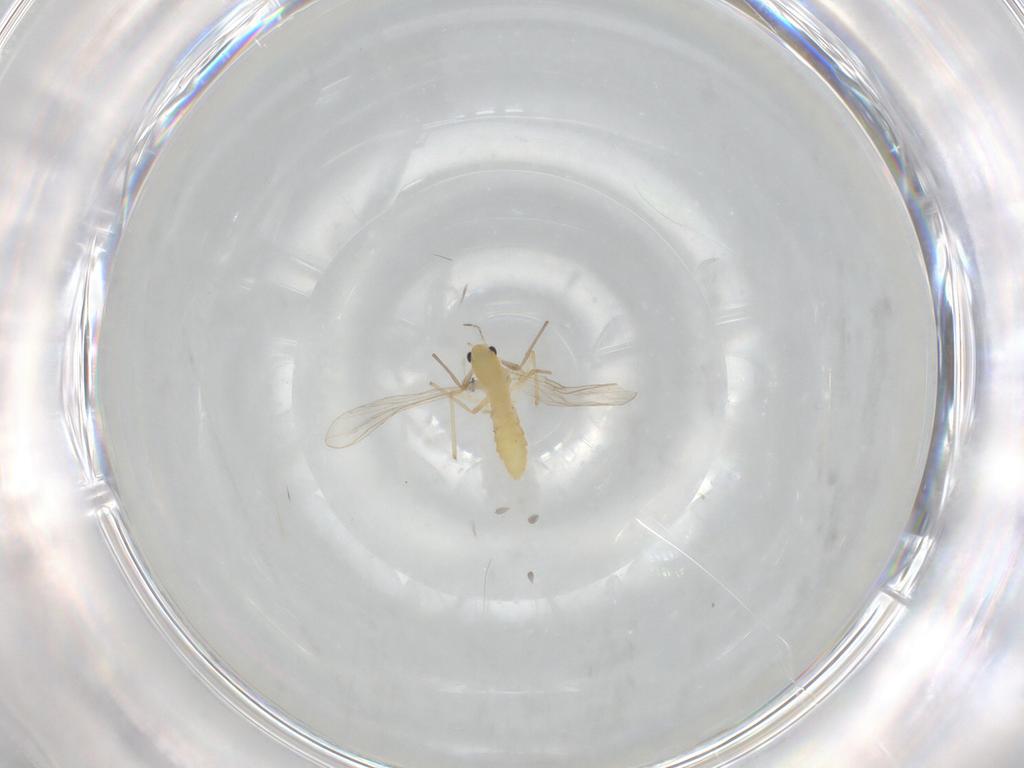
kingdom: Animalia
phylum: Arthropoda
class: Insecta
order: Diptera
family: Chironomidae
